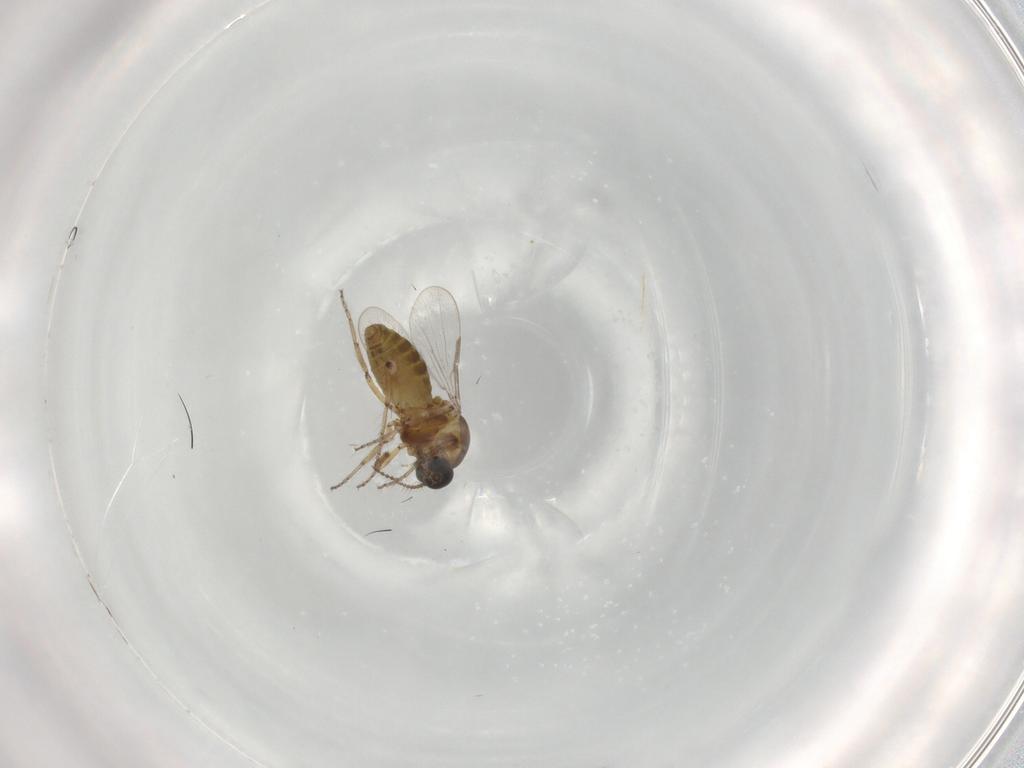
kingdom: Animalia
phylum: Arthropoda
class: Insecta
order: Diptera
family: Ceratopogonidae
